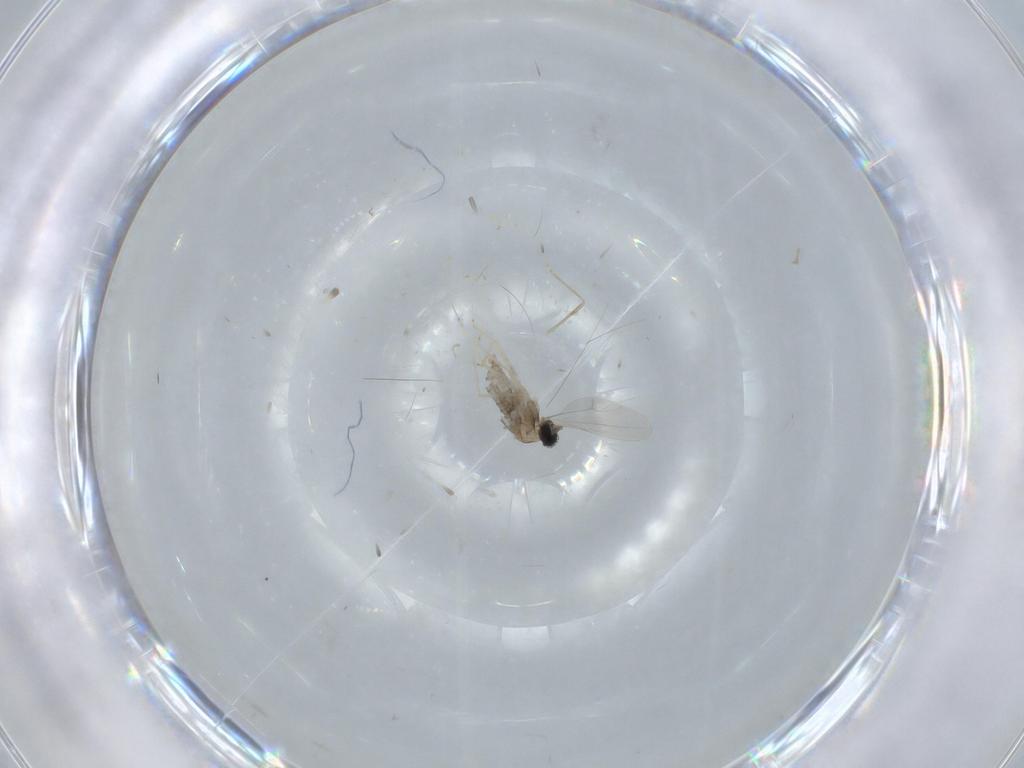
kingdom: Animalia
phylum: Arthropoda
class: Insecta
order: Diptera
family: Cecidomyiidae
